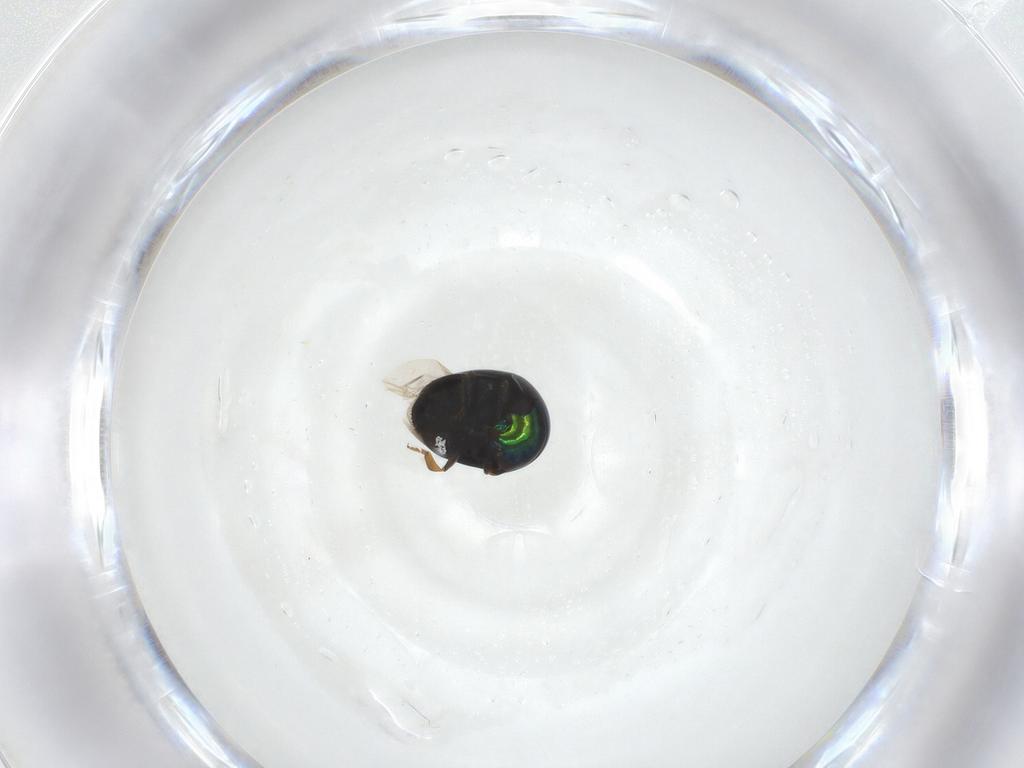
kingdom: Animalia
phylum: Arthropoda
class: Insecta
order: Coleoptera
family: Cybocephalidae
